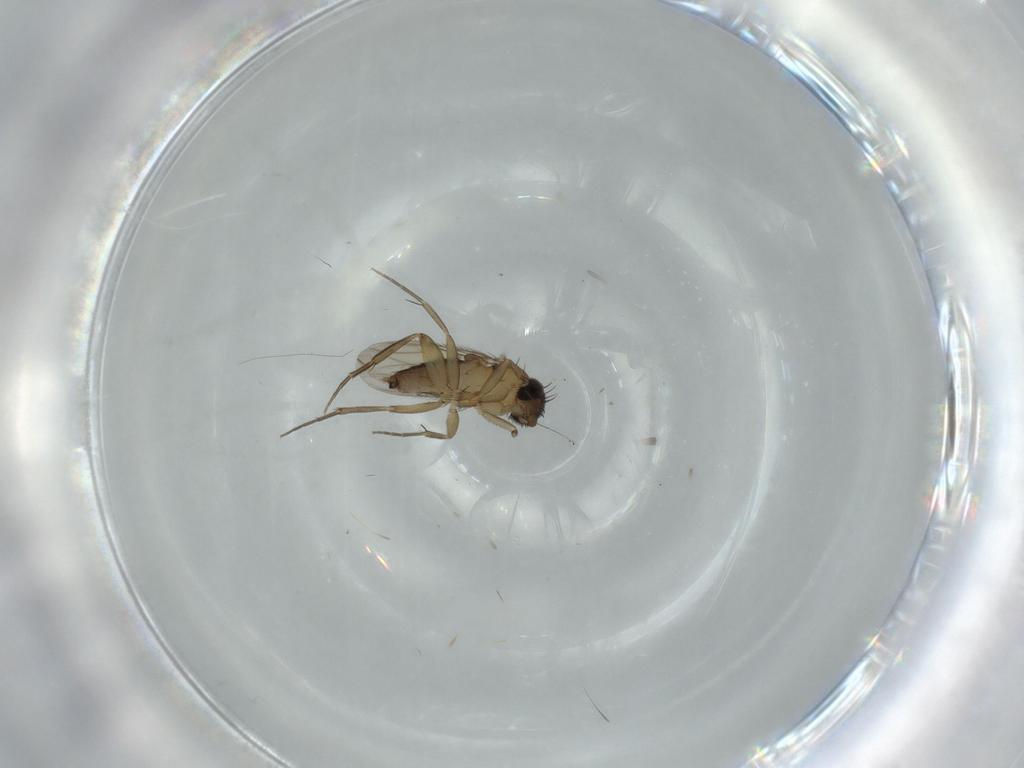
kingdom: Animalia
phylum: Arthropoda
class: Insecta
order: Diptera
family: Phoridae
